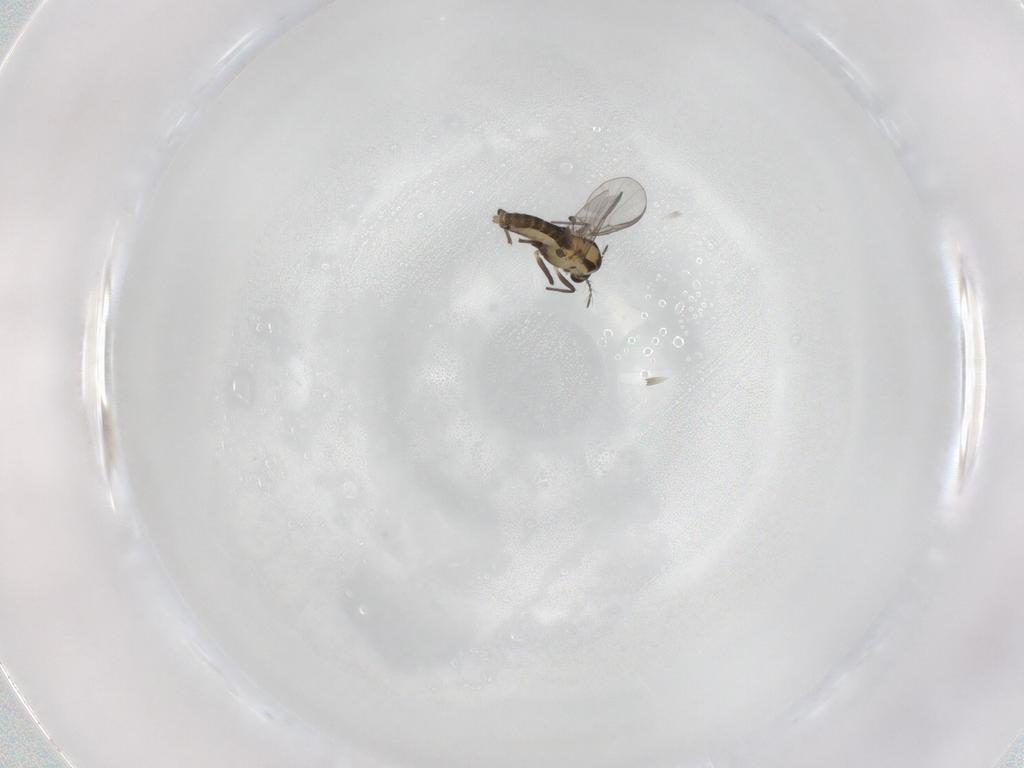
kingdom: Animalia
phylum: Arthropoda
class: Insecta
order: Diptera
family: Chironomidae
